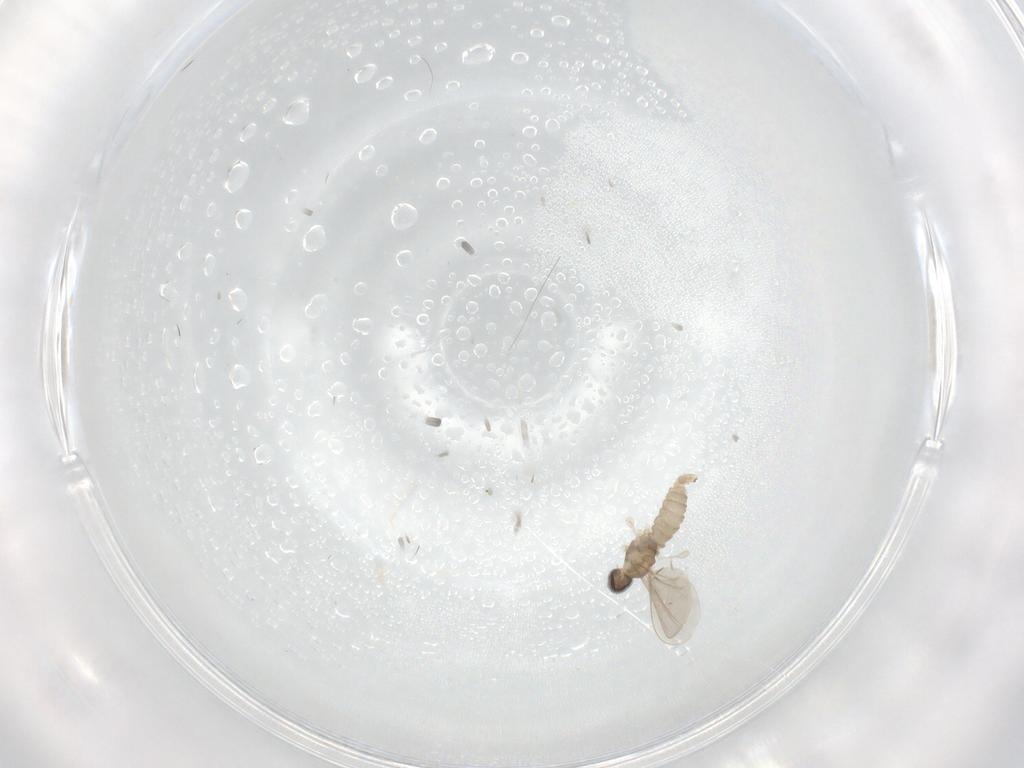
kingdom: Animalia
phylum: Arthropoda
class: Insecta
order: Diptera
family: Cecidomyiidae
